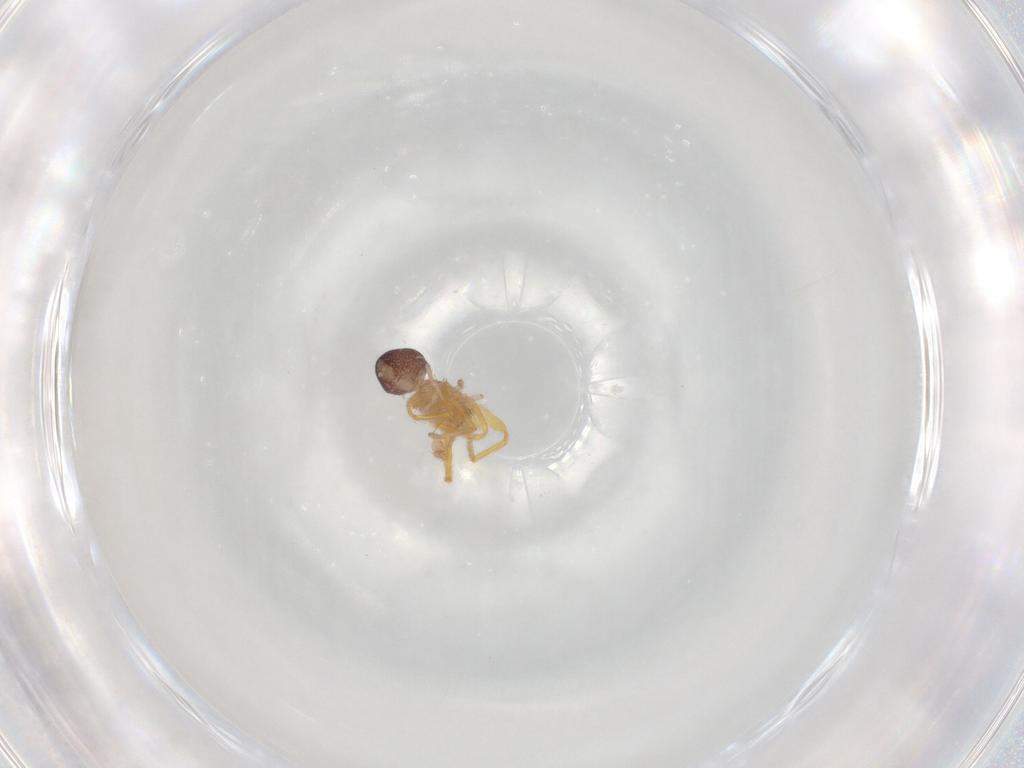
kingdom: Animalia
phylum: Arthropoda
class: Arachnida
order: Araneae
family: Dictynidae
